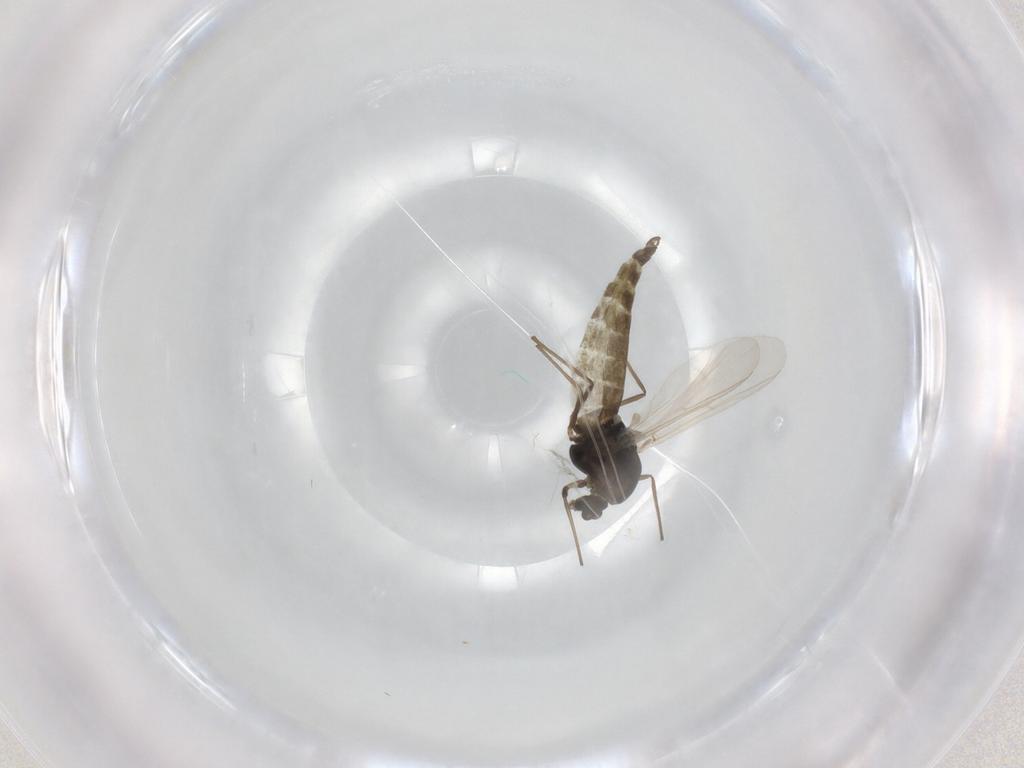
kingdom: Animalia
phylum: Arthropoda
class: Insecta
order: Diptera
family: Chironomidae
